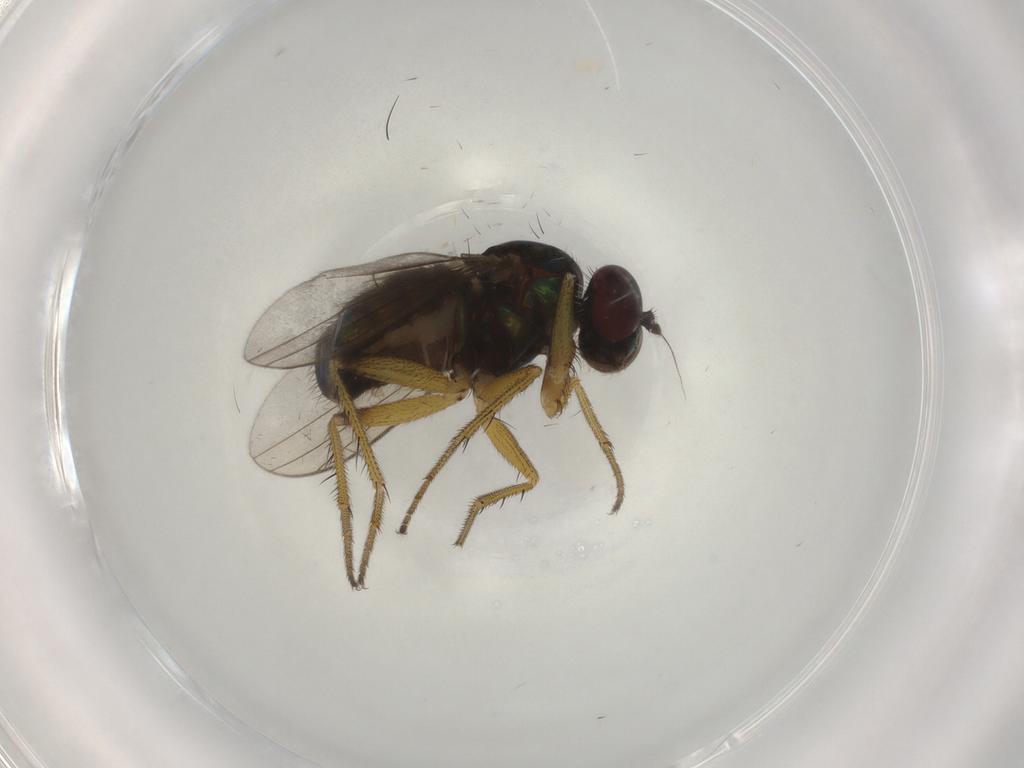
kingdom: Animalia
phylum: Arthropoda
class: Insecta
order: Diptera
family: Dolichopodidae
